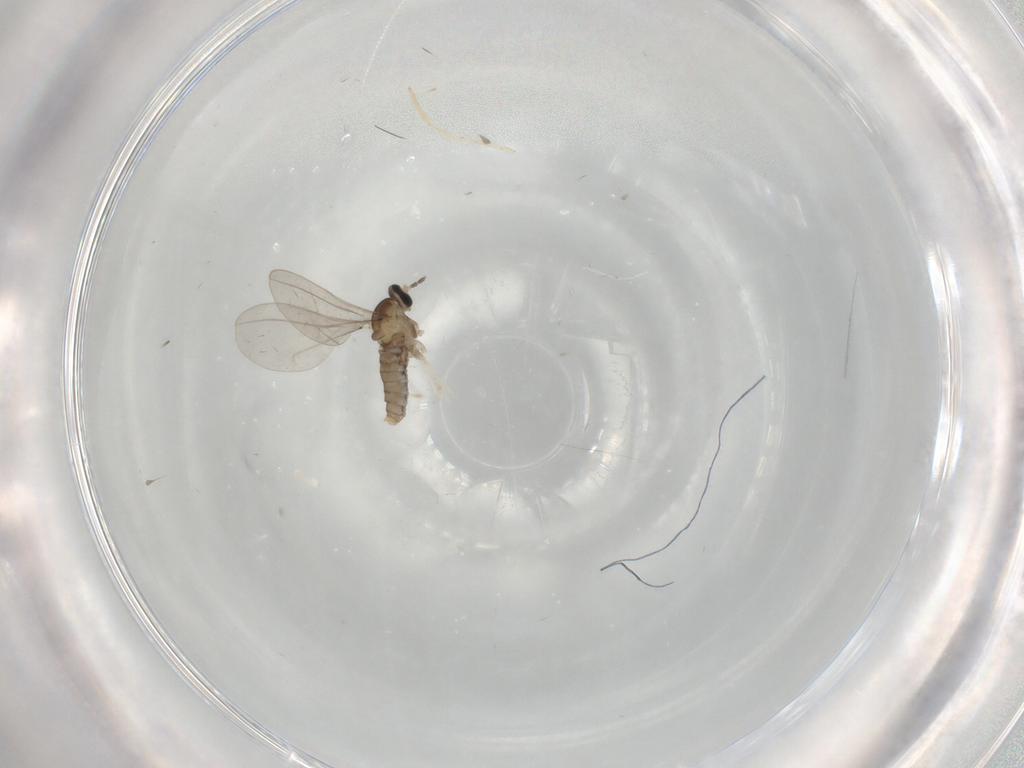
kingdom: Animalia
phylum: Arthropoda
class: Insecta
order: Diptera
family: Cecidomyiidae
